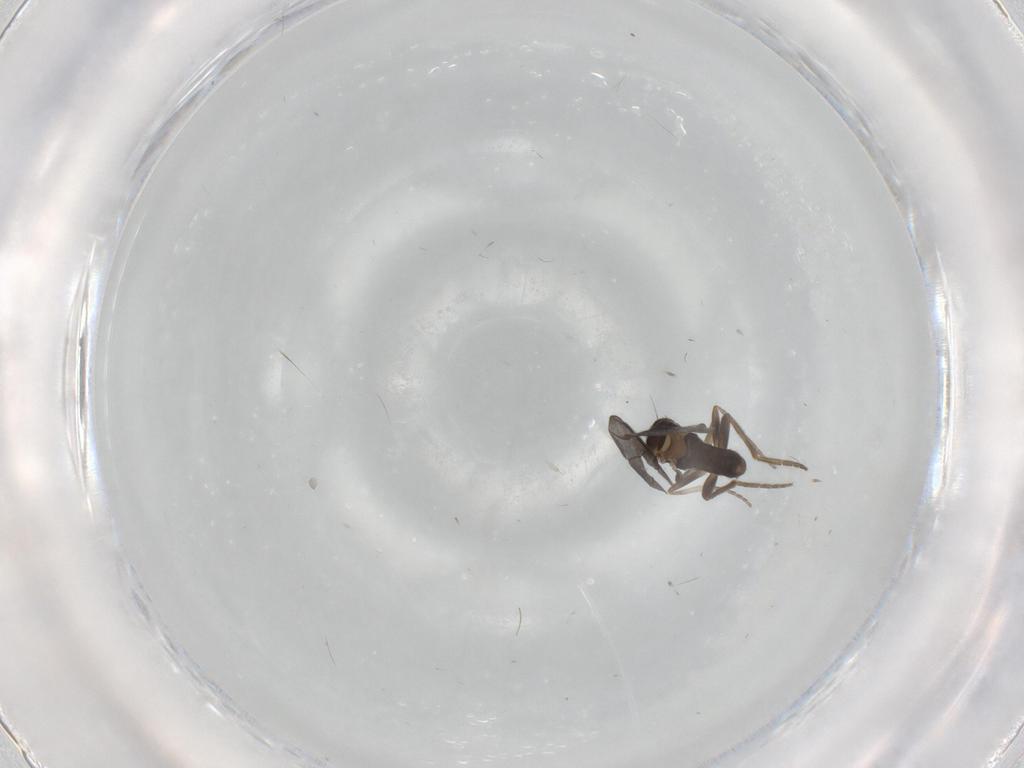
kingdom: Animalia
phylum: Arthropoda
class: Insecta
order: Diptera
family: Phoridae
